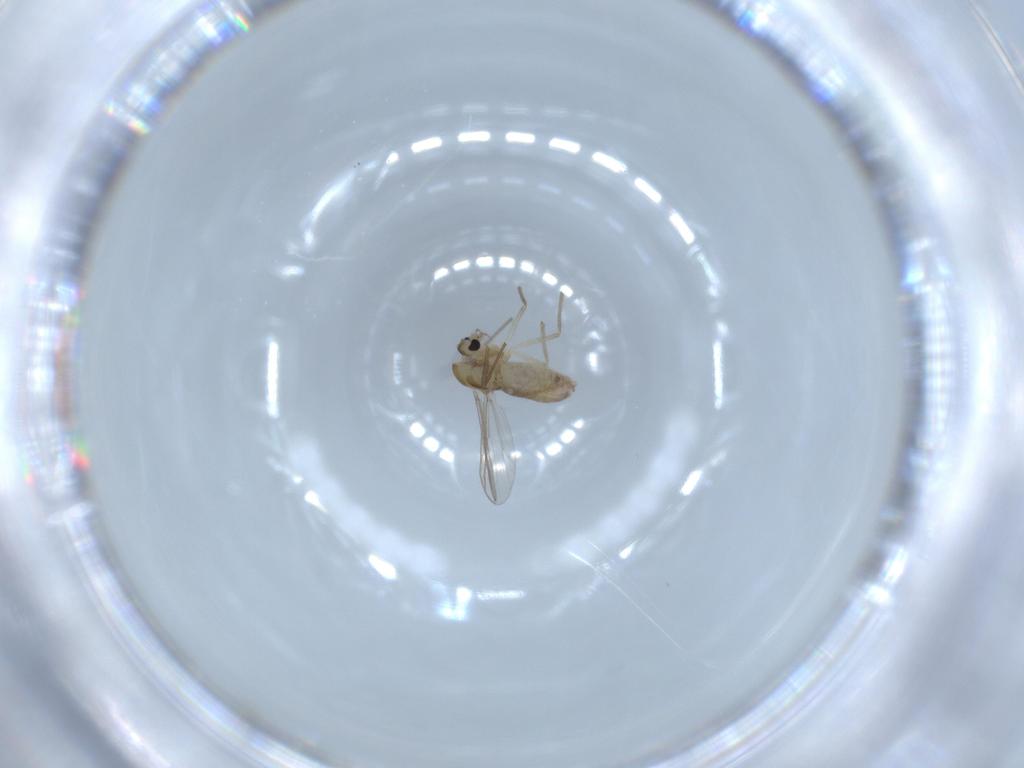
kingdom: Animalia
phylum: Arthropoda
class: Insecta
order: Diptera
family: Chironomidae
